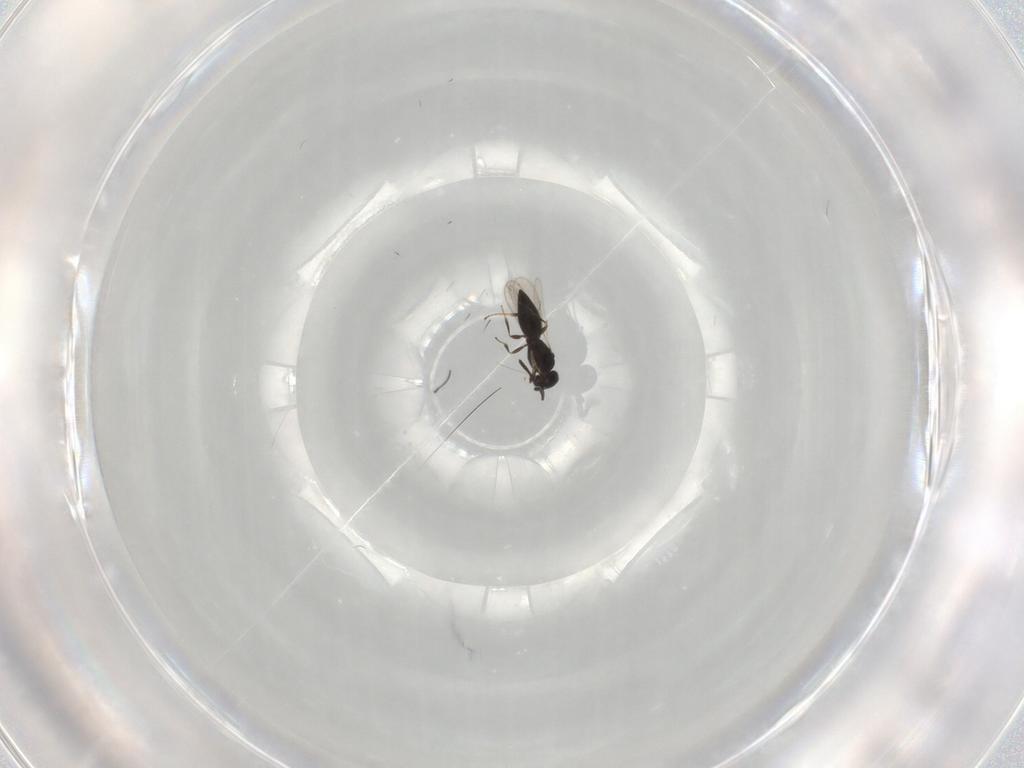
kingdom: Animalia
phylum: Arthropoda
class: Insecta
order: Hymenoptera
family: Scelionidae
